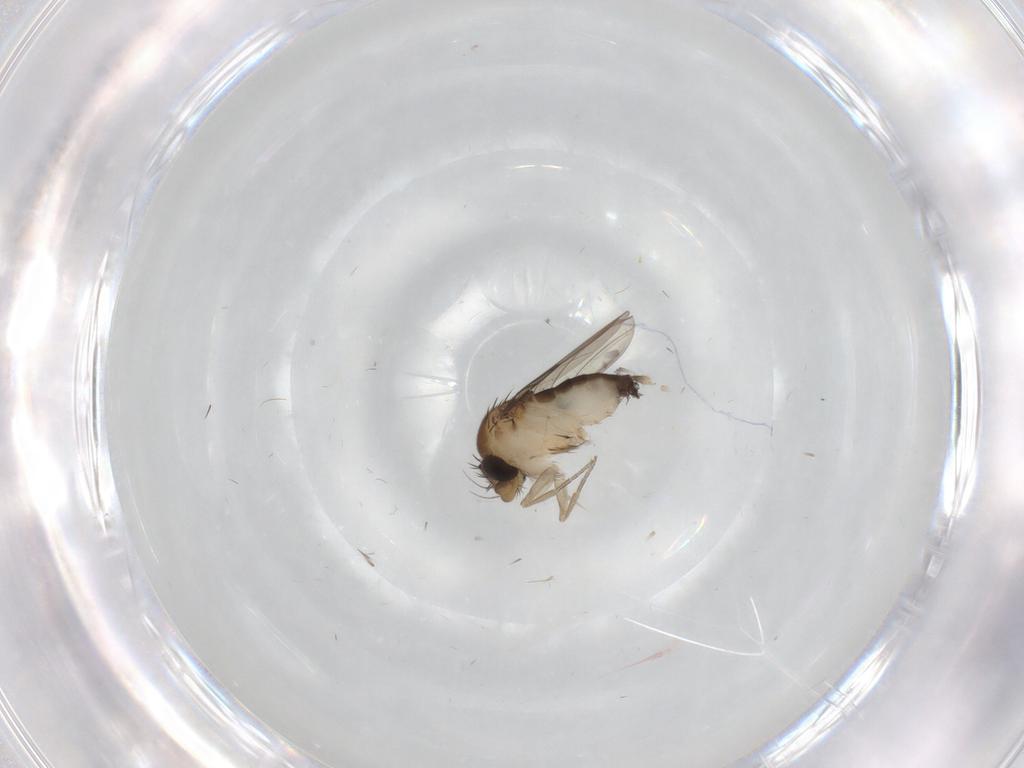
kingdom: Animalia
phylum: Arthropoda
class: Insecta
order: Diptera
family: Phoridae
